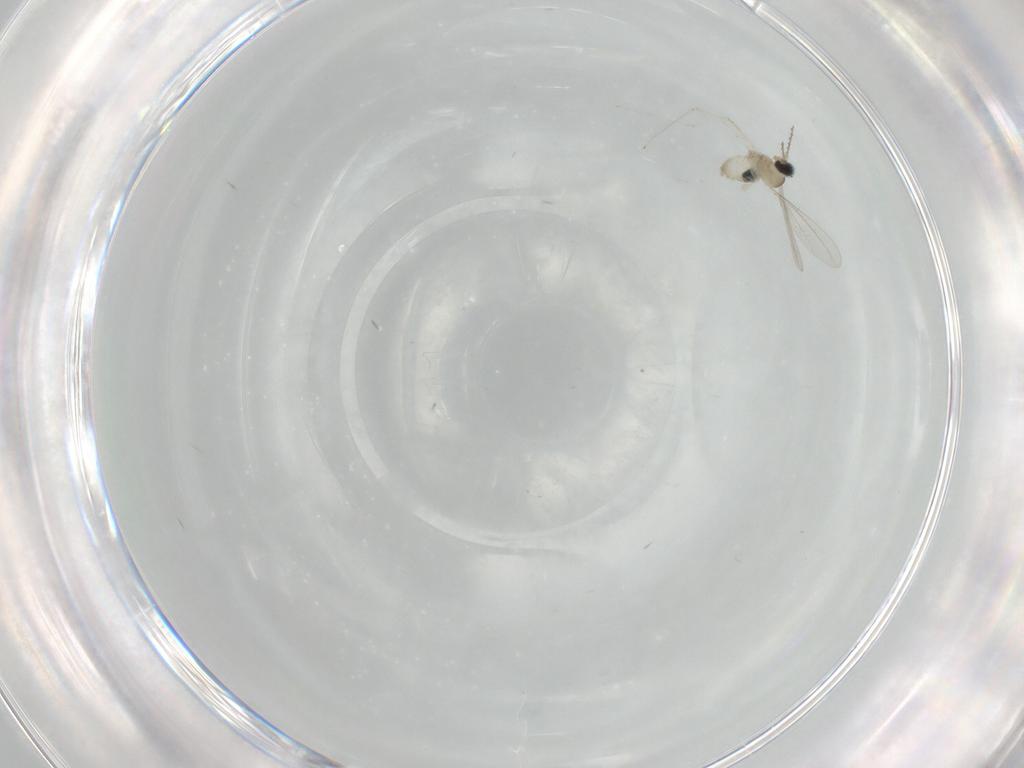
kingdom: Animalia
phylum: Arthropoda
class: Insecta
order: Diptera
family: Cecidomyiidae
